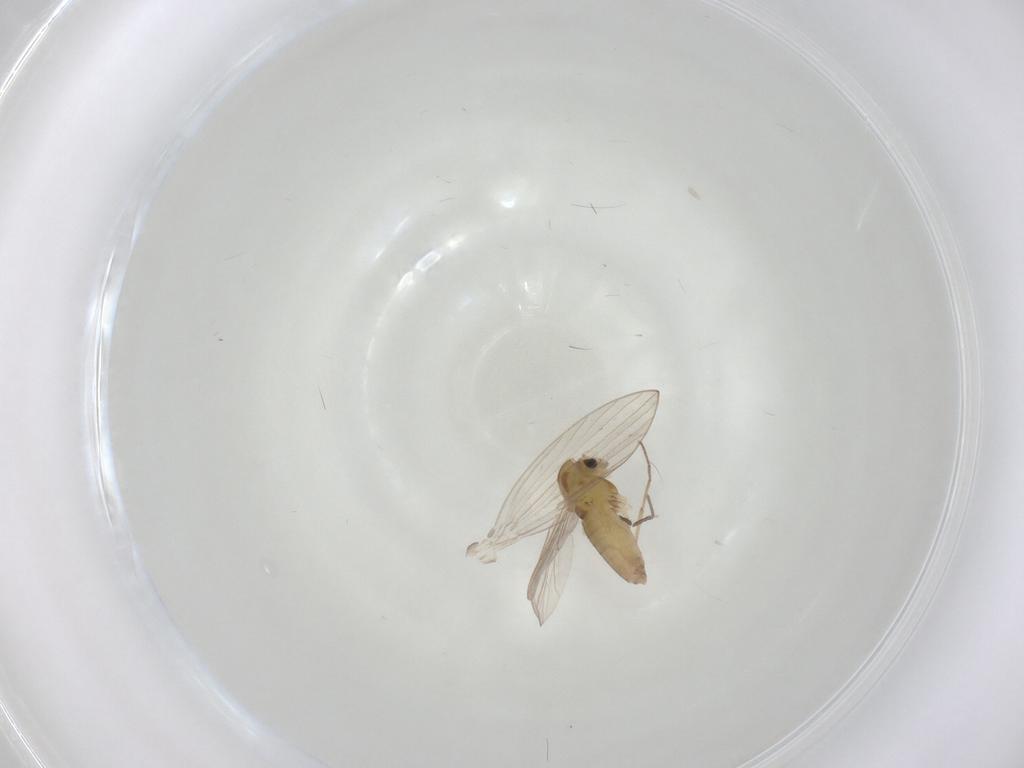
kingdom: Animalia
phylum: Arthropoda
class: Insecta
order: Diptera
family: Chironomidae
